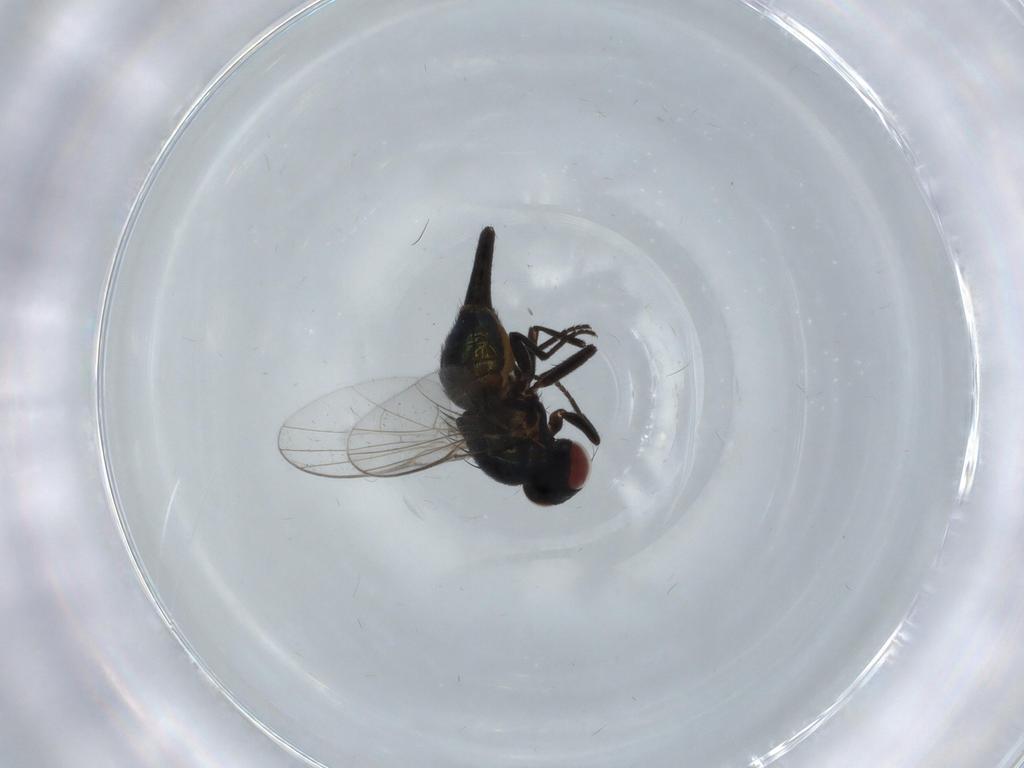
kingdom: Animalia
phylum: Arthropoda
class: Insecta
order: Diptera
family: Agromyzidae
